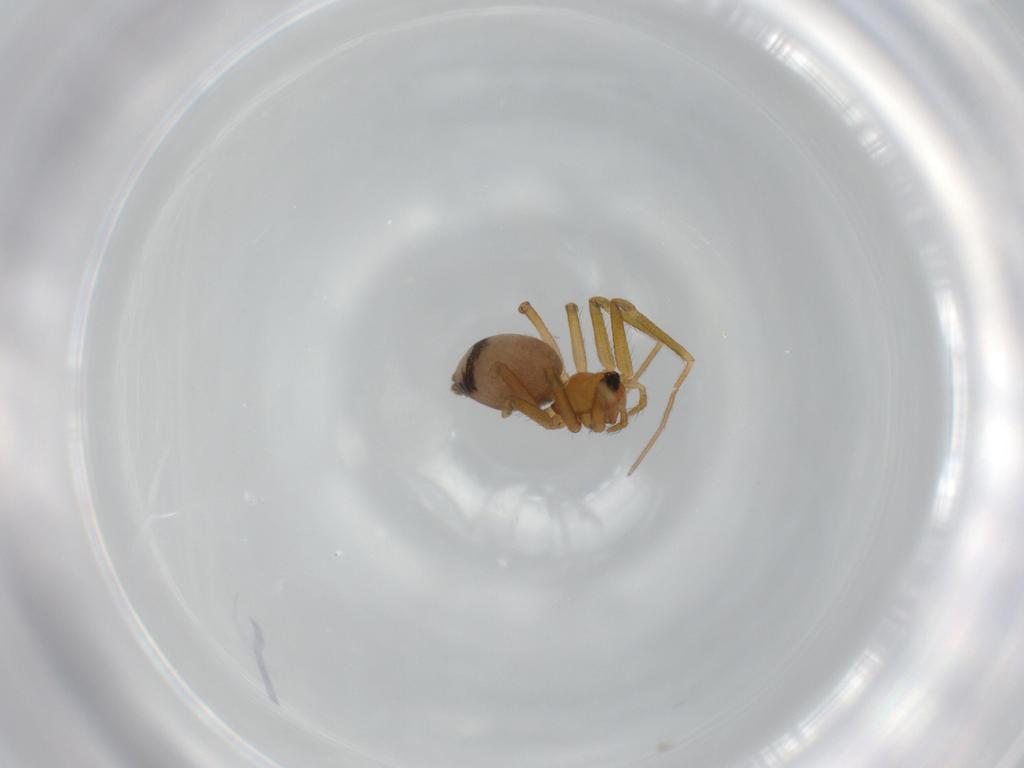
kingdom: Animalia
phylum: Arthropoda
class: Arachnida
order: Araneae
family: Linyphiidae
